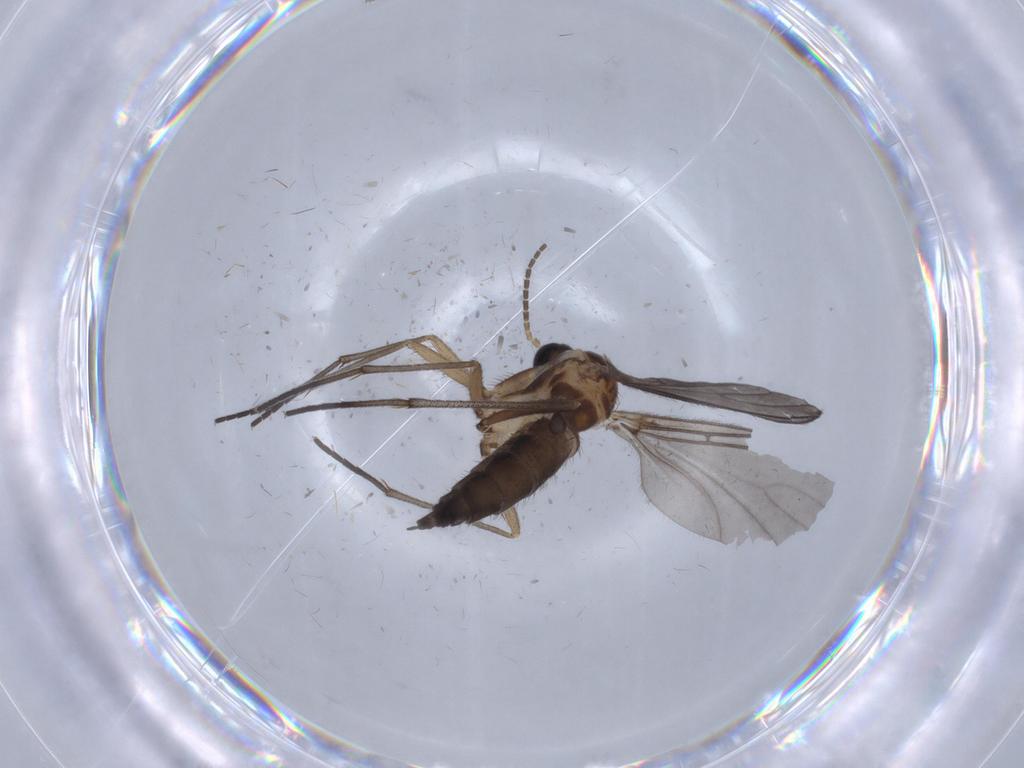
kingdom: Animalia
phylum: Arthropoda
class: Insecta
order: Diptera
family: Sciaridae
